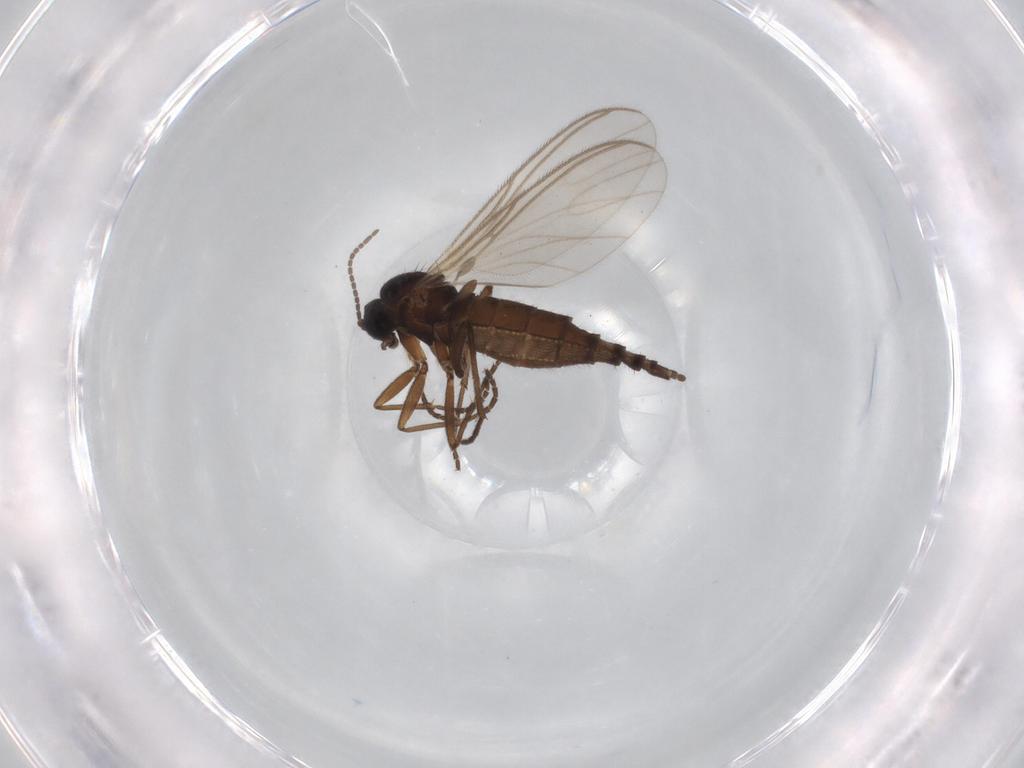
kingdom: Animalia
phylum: Arthropoda
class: Insecta
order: Diptera
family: Sciaridae
